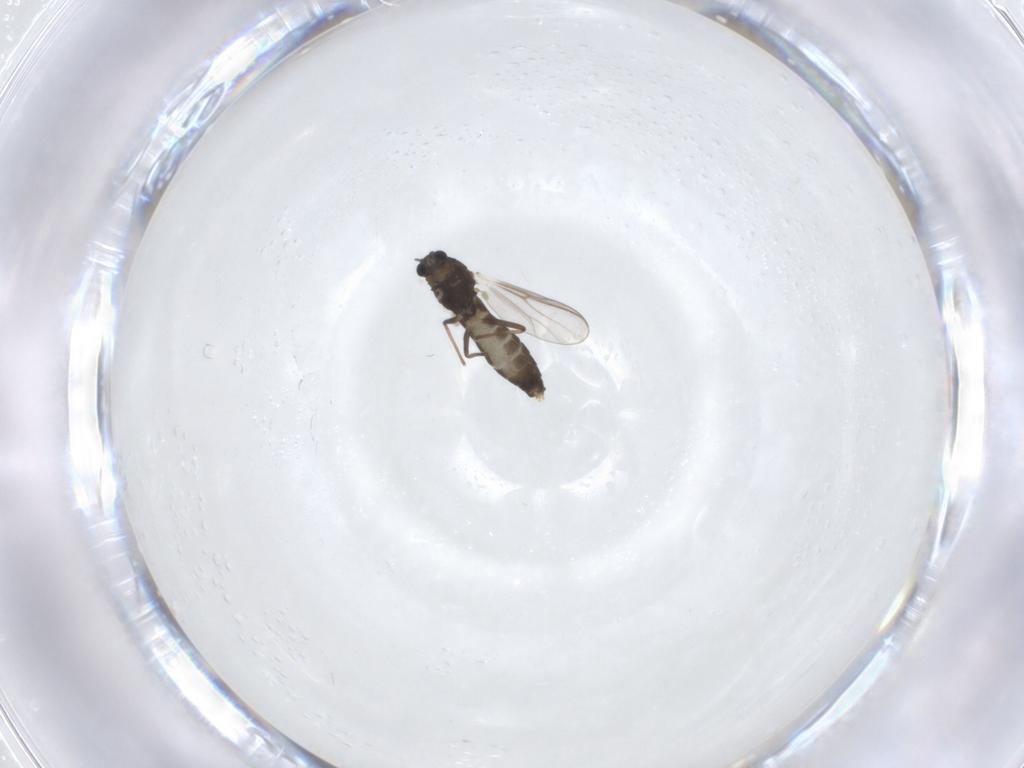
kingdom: Animalia
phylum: Arthropoda
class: Insecta
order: Diptera
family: Chironomidae
